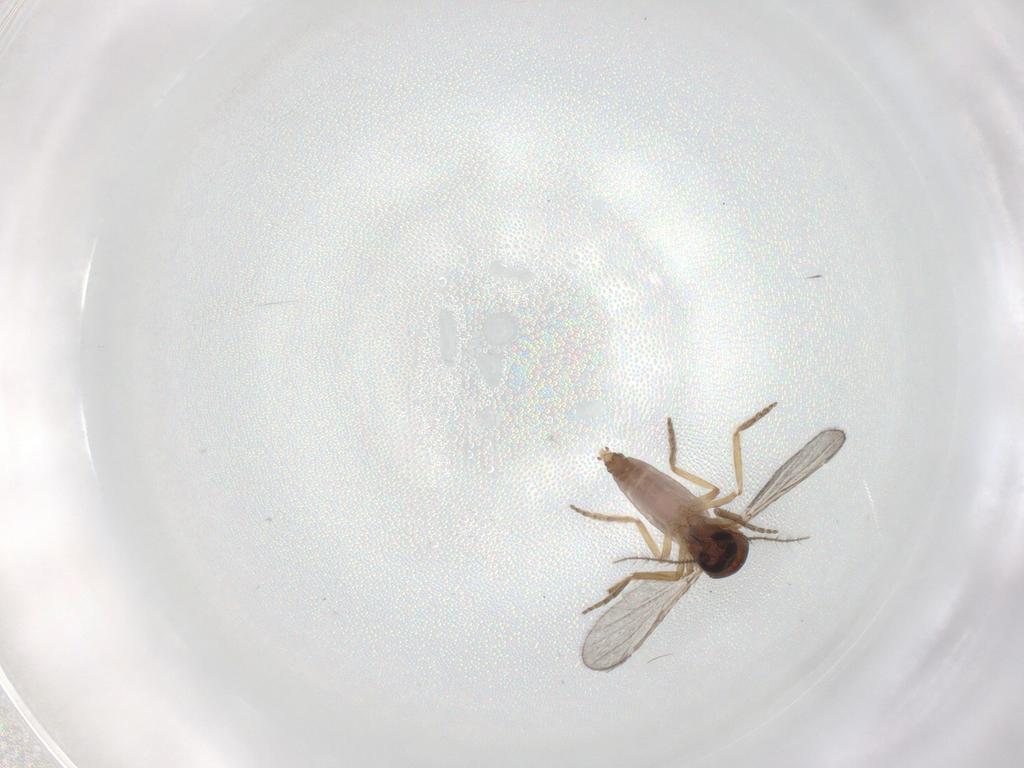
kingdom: Animalia
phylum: Arthropoda
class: Insecta
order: Diptera
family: Ceratopogonidae
